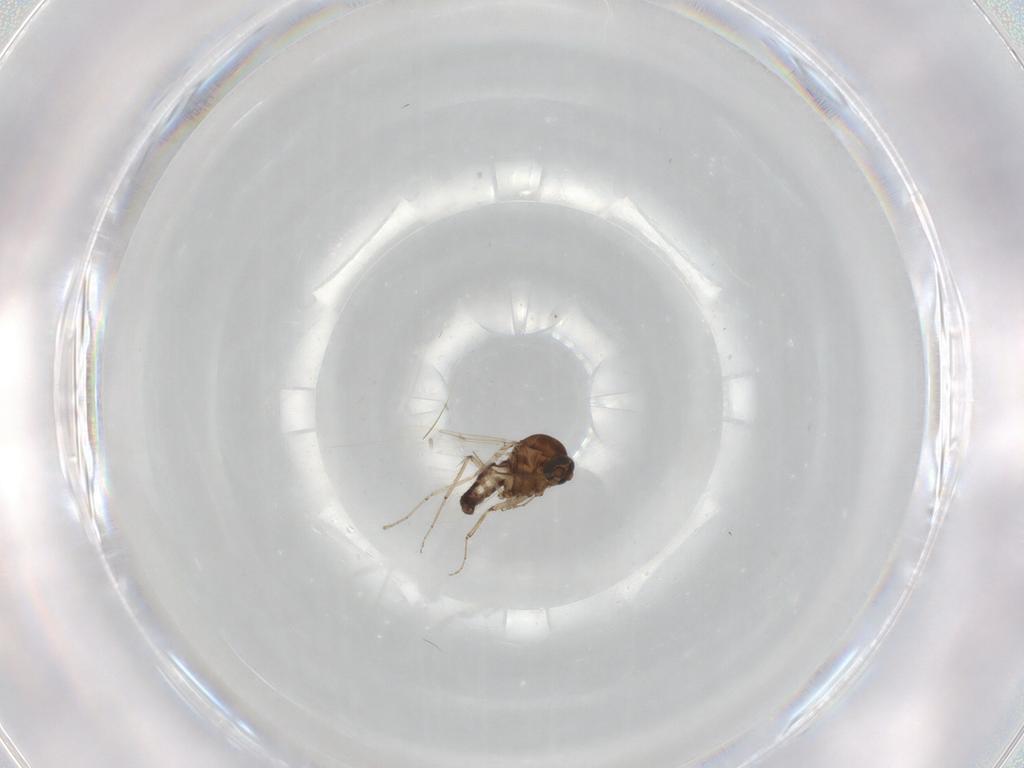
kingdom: Animalia
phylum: Arthropoda
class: Insecta
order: Diptera
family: Ceratopogonidae
